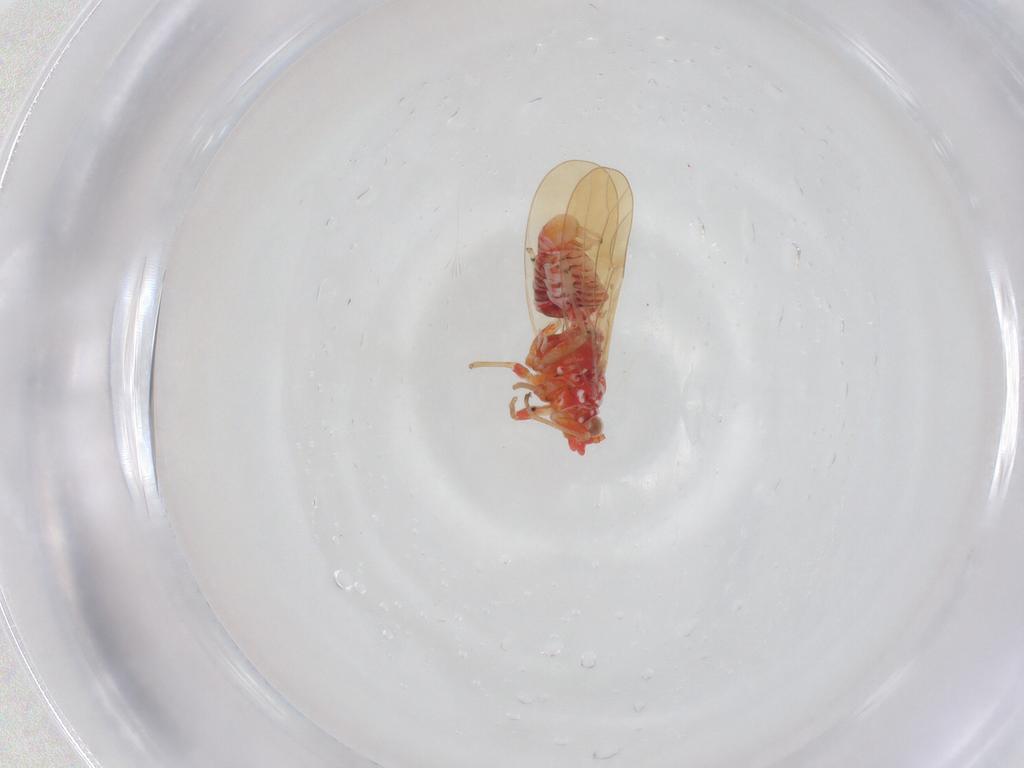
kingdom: Animalia
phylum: Arthropoda
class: Insecta
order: Hemiptera
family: Psyllidae
